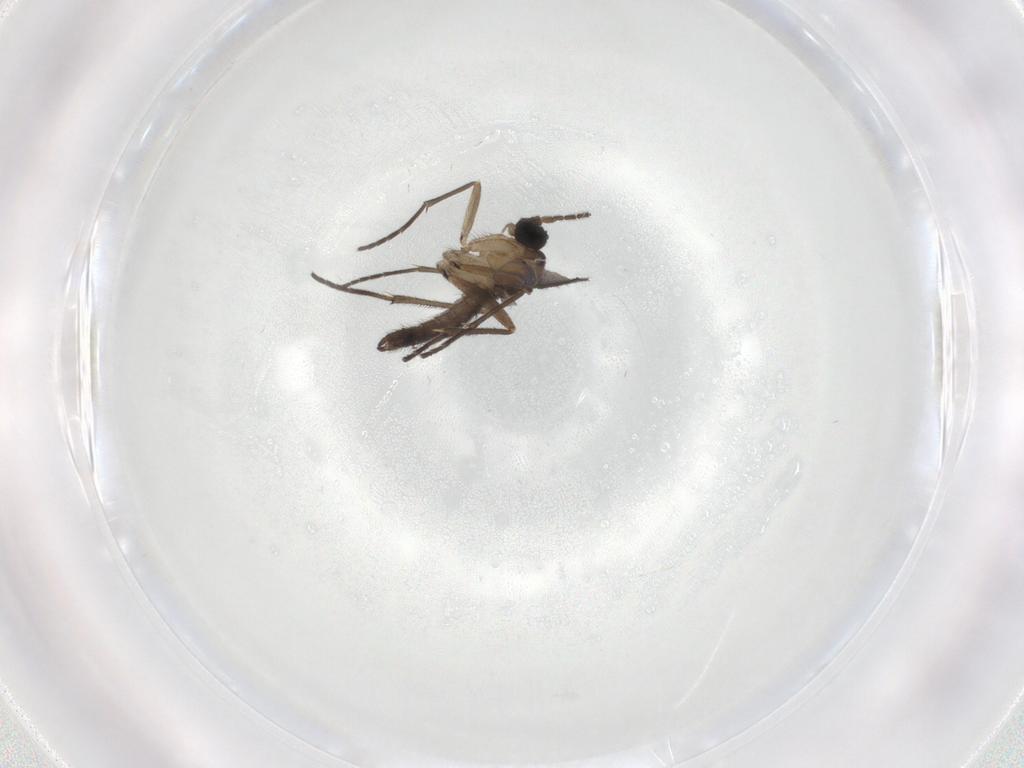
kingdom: Animalia
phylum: Arthropoda
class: Insecta
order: Diptera
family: Sciaridae
